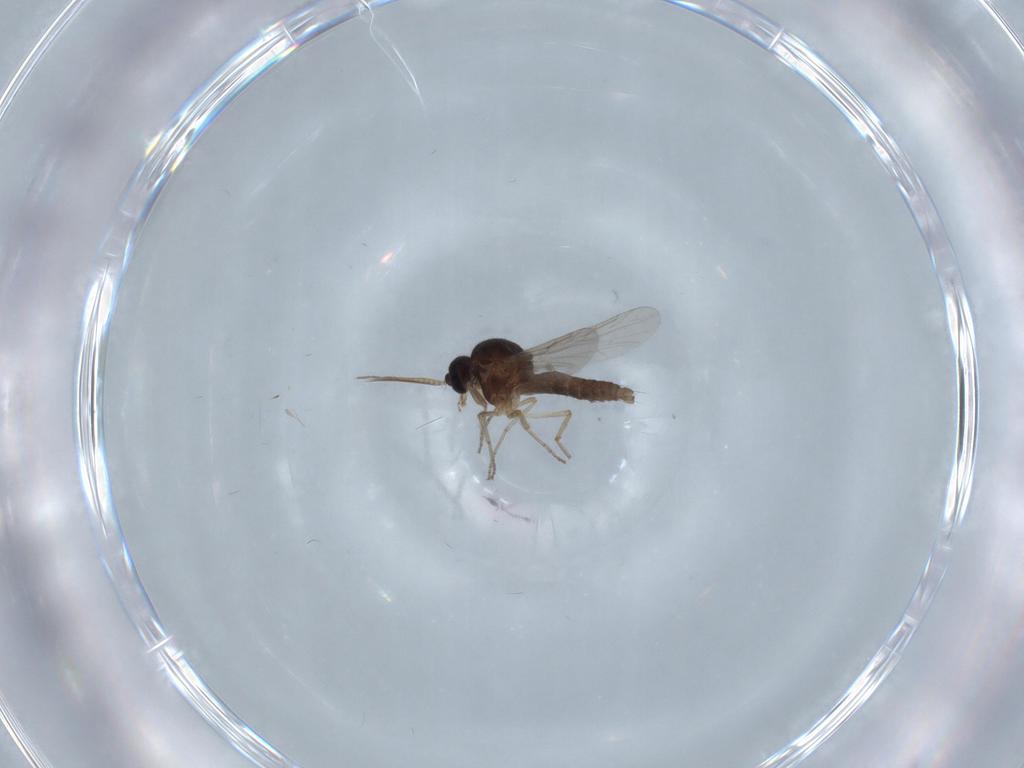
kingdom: Animalia
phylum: Arthropoda
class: Insecta
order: Diptera
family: Ceratopogonidae
